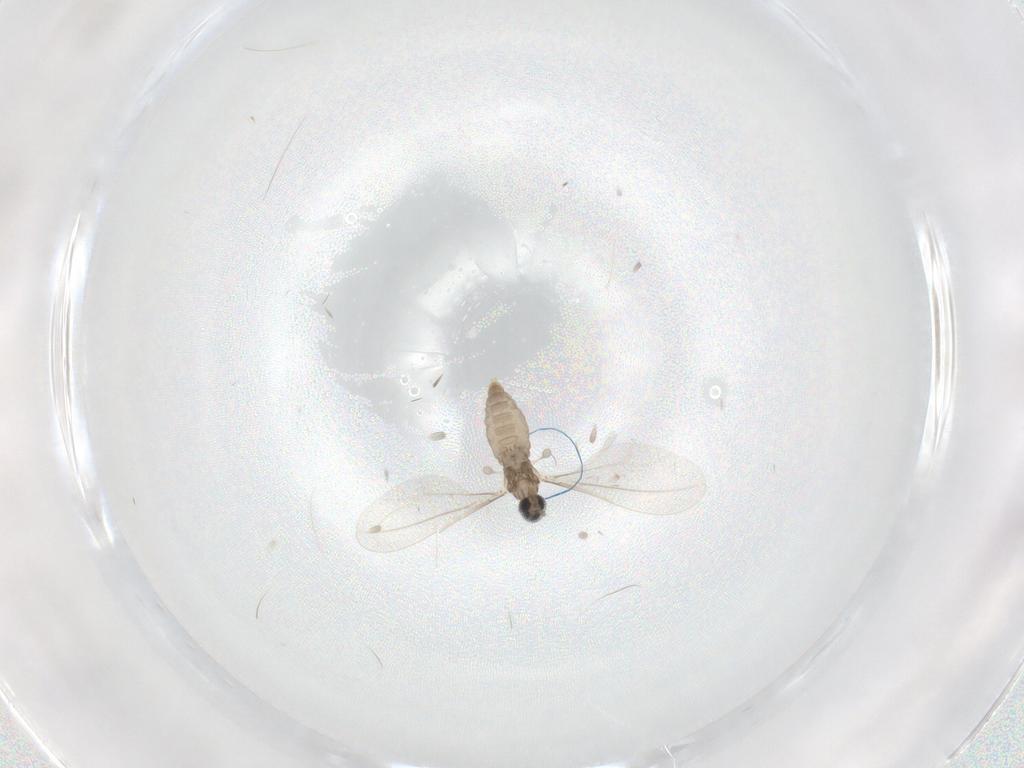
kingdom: Animalia
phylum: Arthropoda
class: Insecta
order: Diptera
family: Cecidomyiidae
